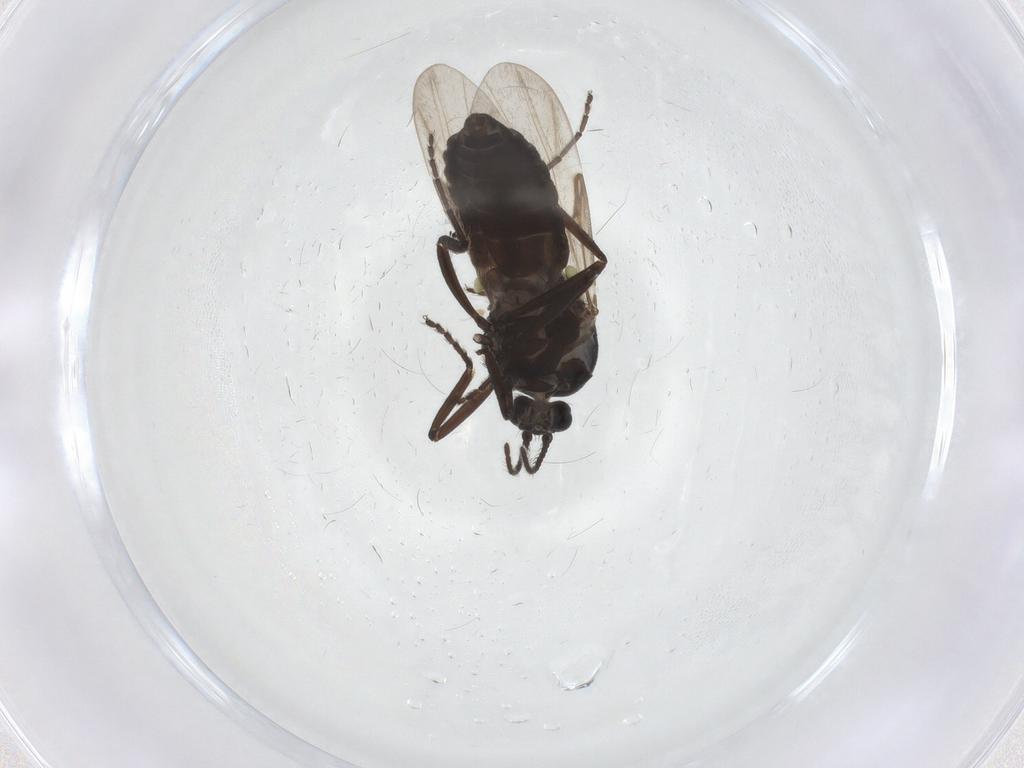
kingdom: Animalia
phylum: Arthropoda
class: Insecta
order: Diptera
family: Ceratopogonidae
